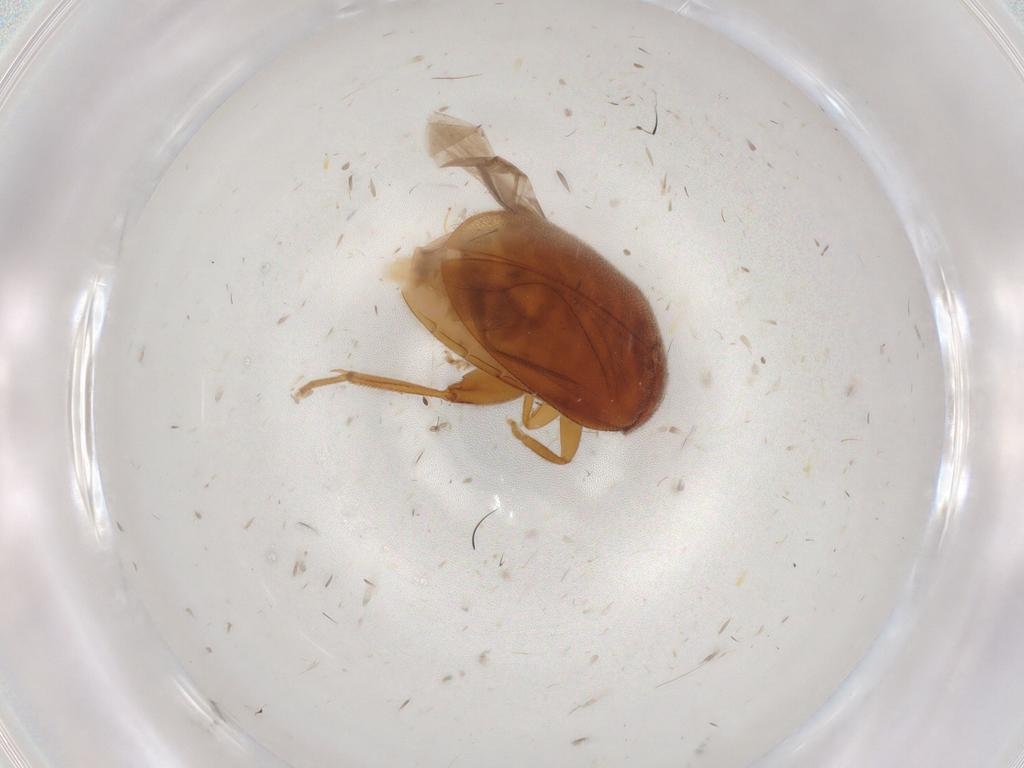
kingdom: Animalia
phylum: Arthropoda
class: Insecta
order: Coleoptera
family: Scirtidae
